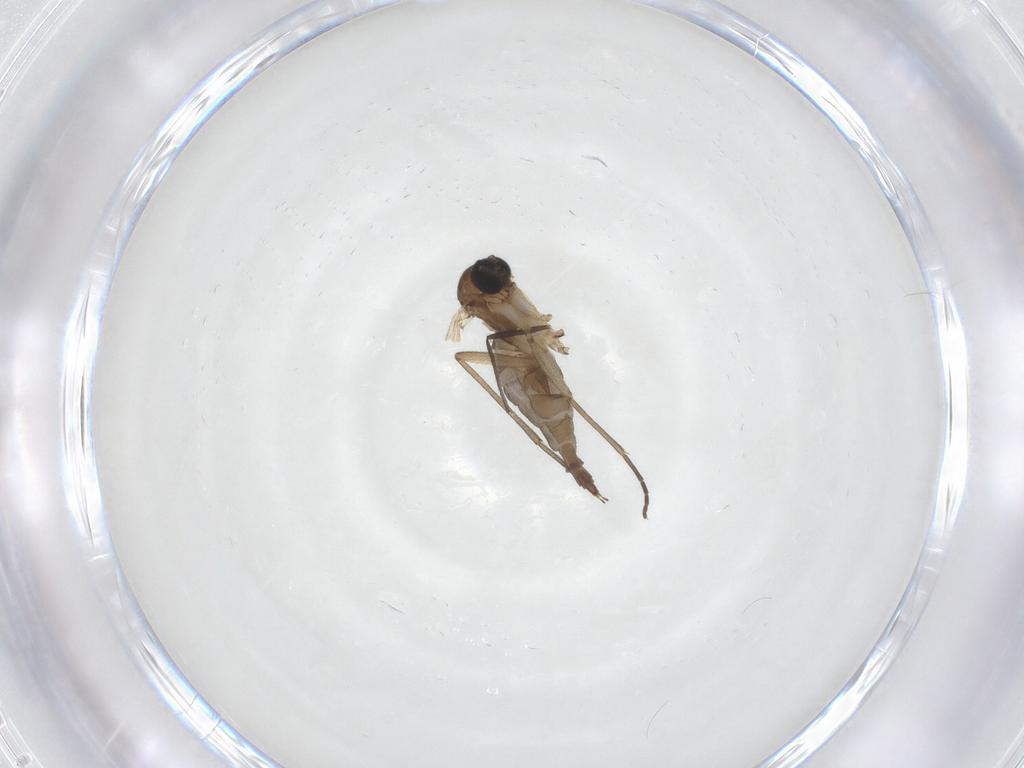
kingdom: Animalia
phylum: Arthropoda
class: Insecta
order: Diptera
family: Sciaridae
